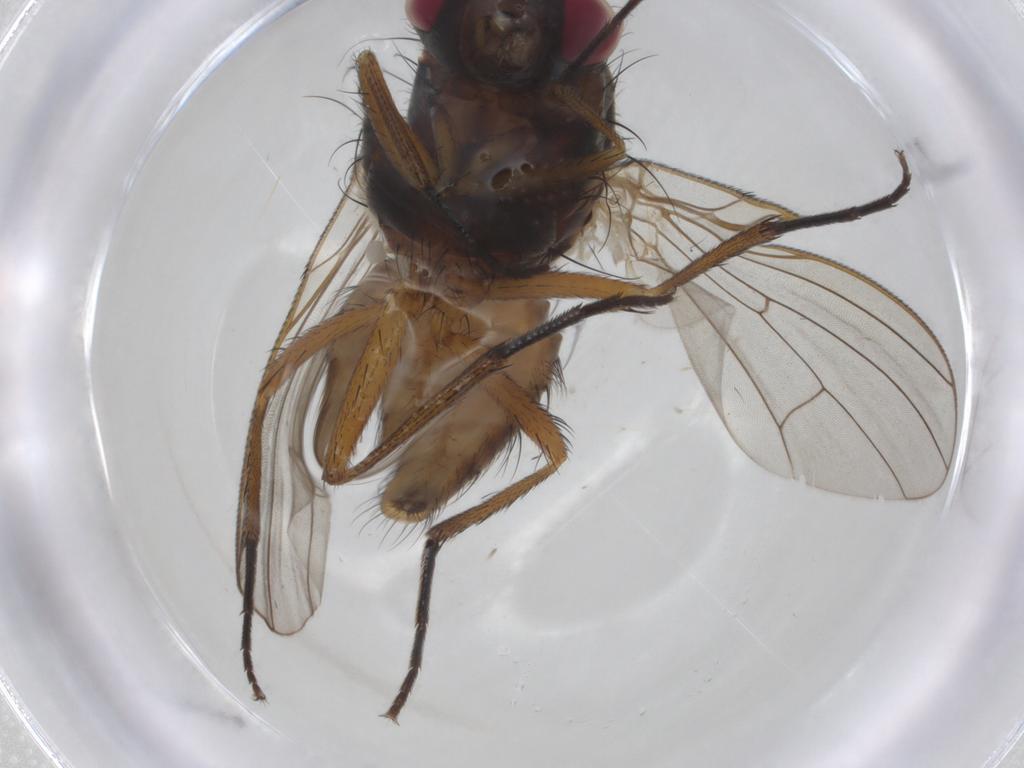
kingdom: Animalia
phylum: Arthropoda
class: Insecta
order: Diptera
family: Anthomyiidae
